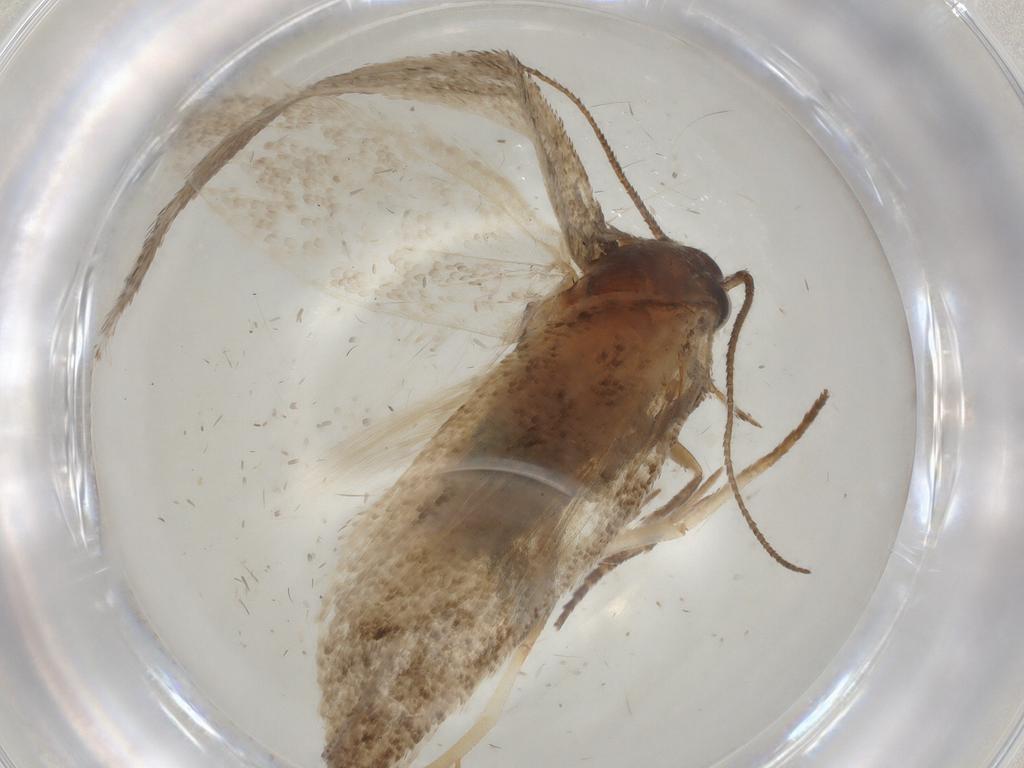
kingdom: Animalia
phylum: Arthropoda
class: Insecta
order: Lepidoptera
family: Cosmopterigidae
